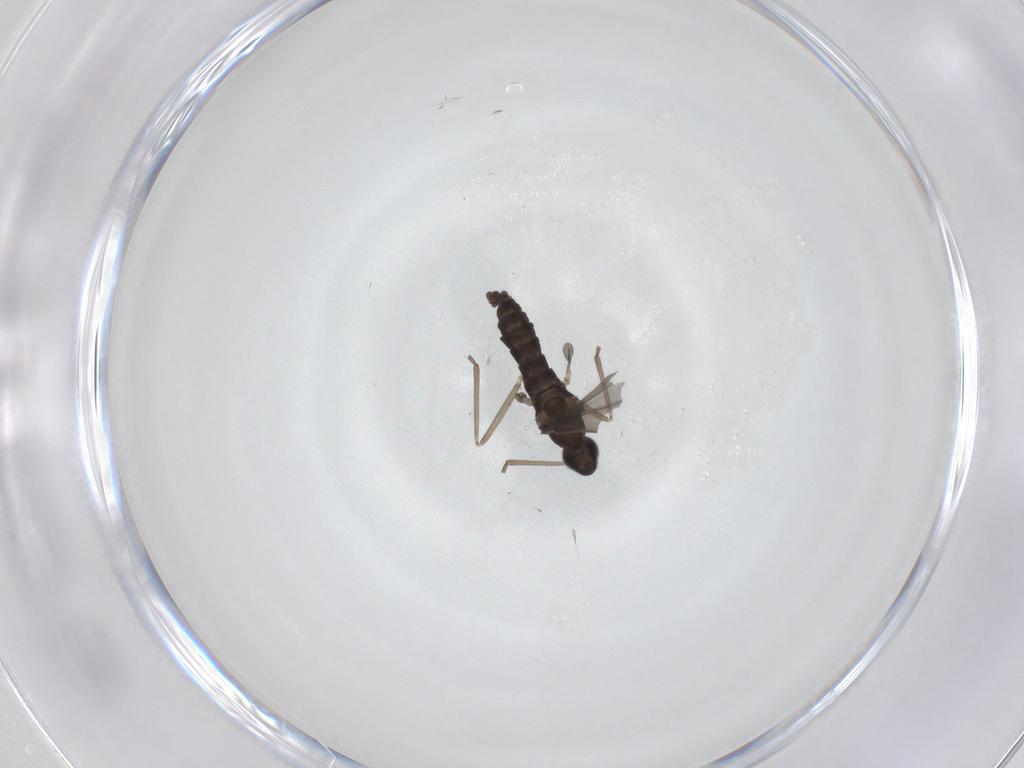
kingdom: Animalia
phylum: Arthropoda
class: Insecta
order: Diptera
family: Cecidomyiidae
